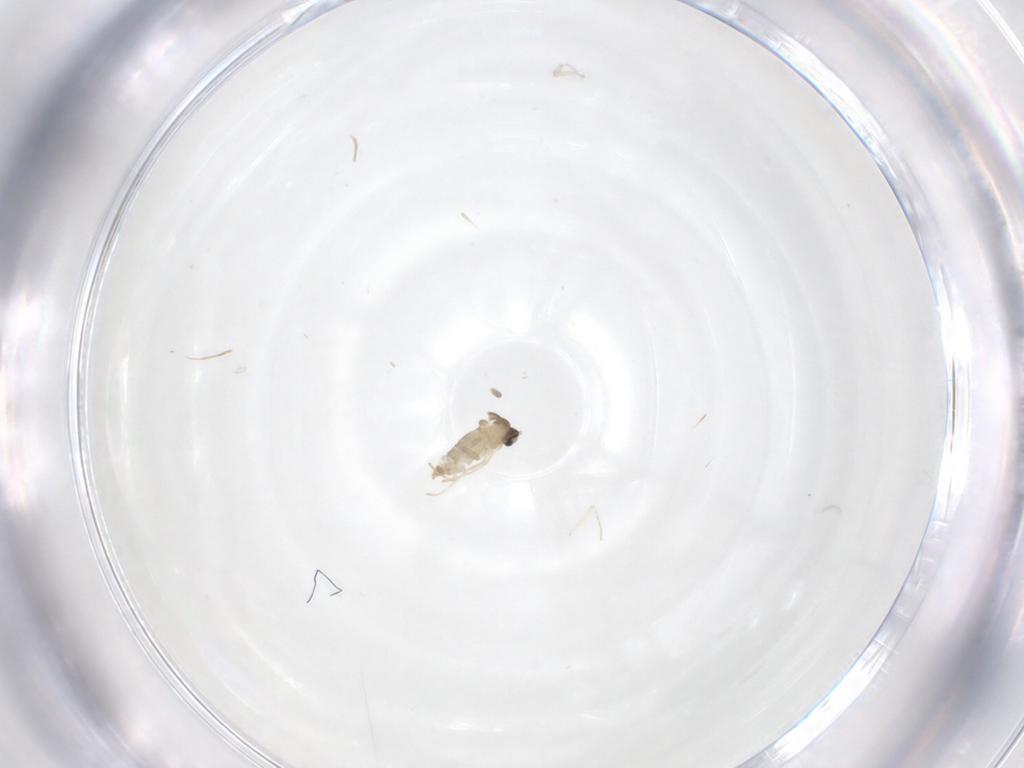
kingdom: Animalia
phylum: Arthropoda
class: Insecta
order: Diptera
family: Cecidomyiidae
